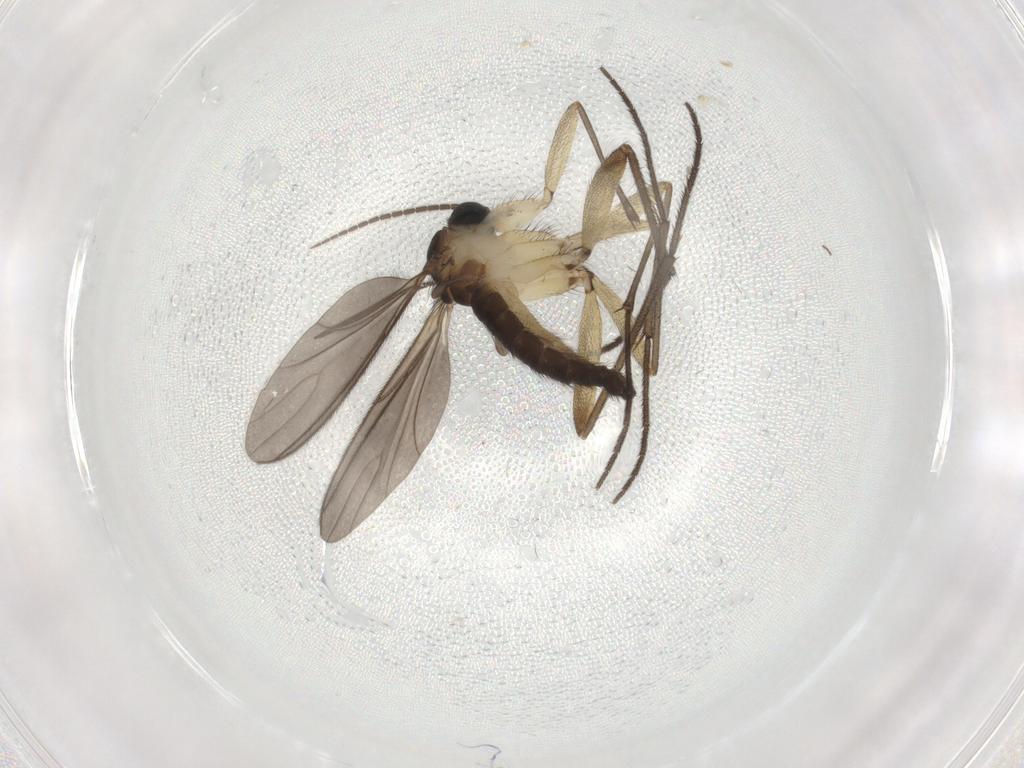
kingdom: Animalia
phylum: Arthropoda
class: Insecta
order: Diptera
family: Sciaridae
